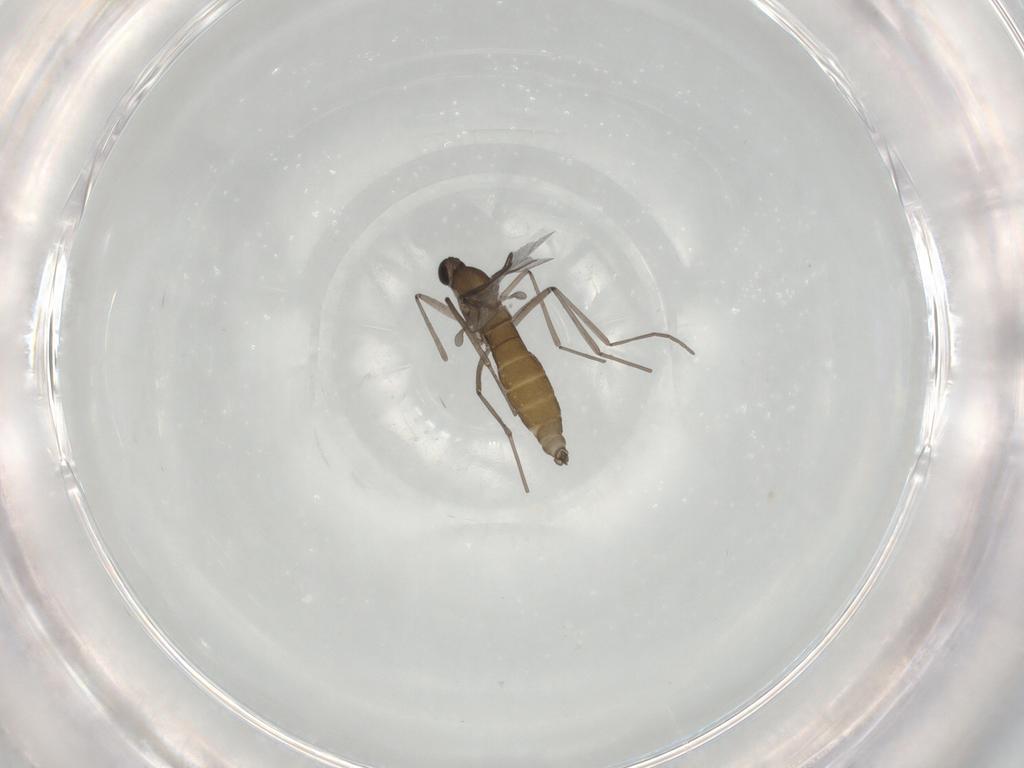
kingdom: Animalia
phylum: Arthropoda
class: Insecta
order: Diptera
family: Cecidomyiidae
